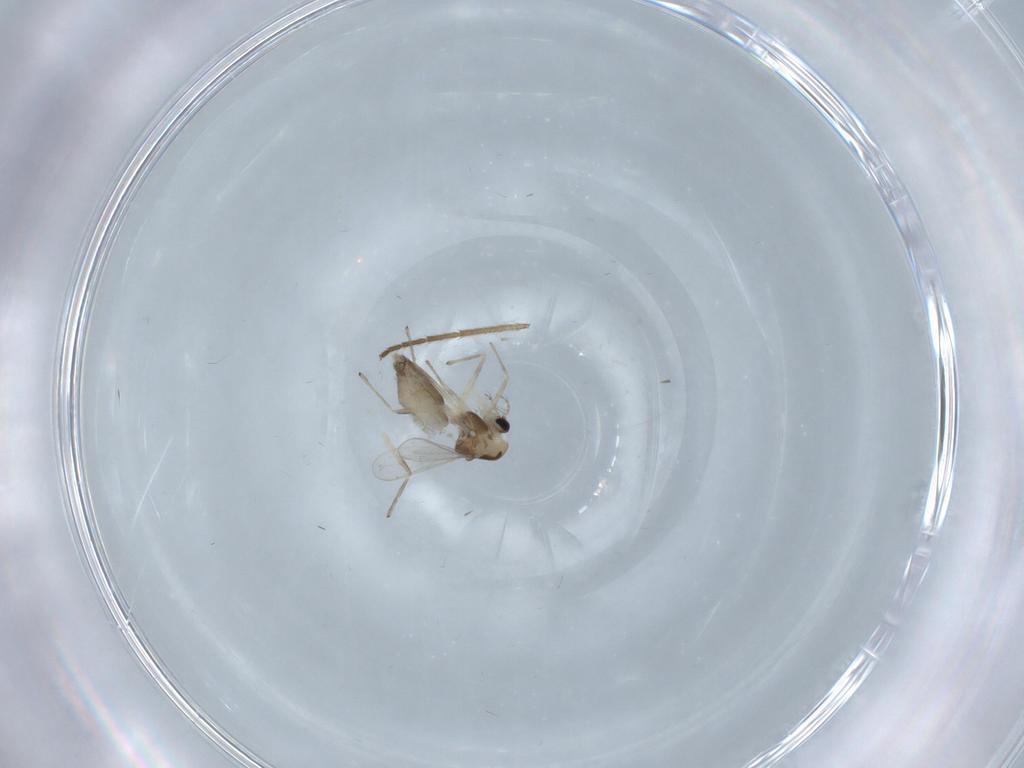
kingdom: Animalia
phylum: Arthropoda
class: Insecta
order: Diptera
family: Chironomidae
